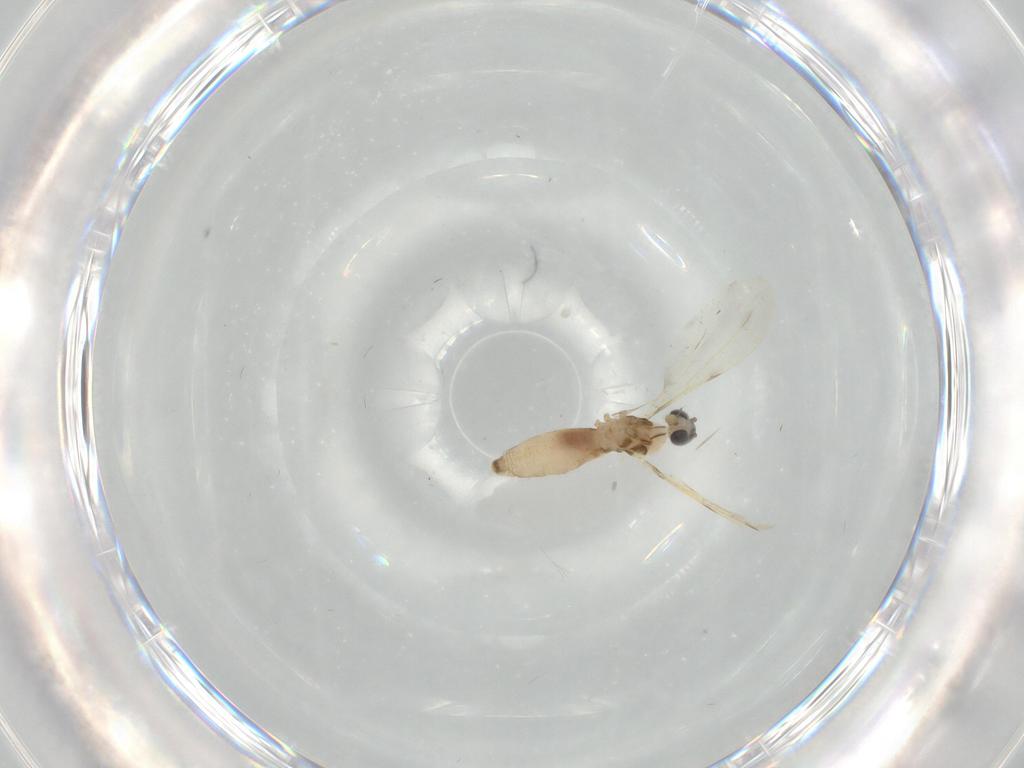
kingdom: Animalia
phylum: Arthropoda
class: Insecta
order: Diptera
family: Cecidomyiidae
